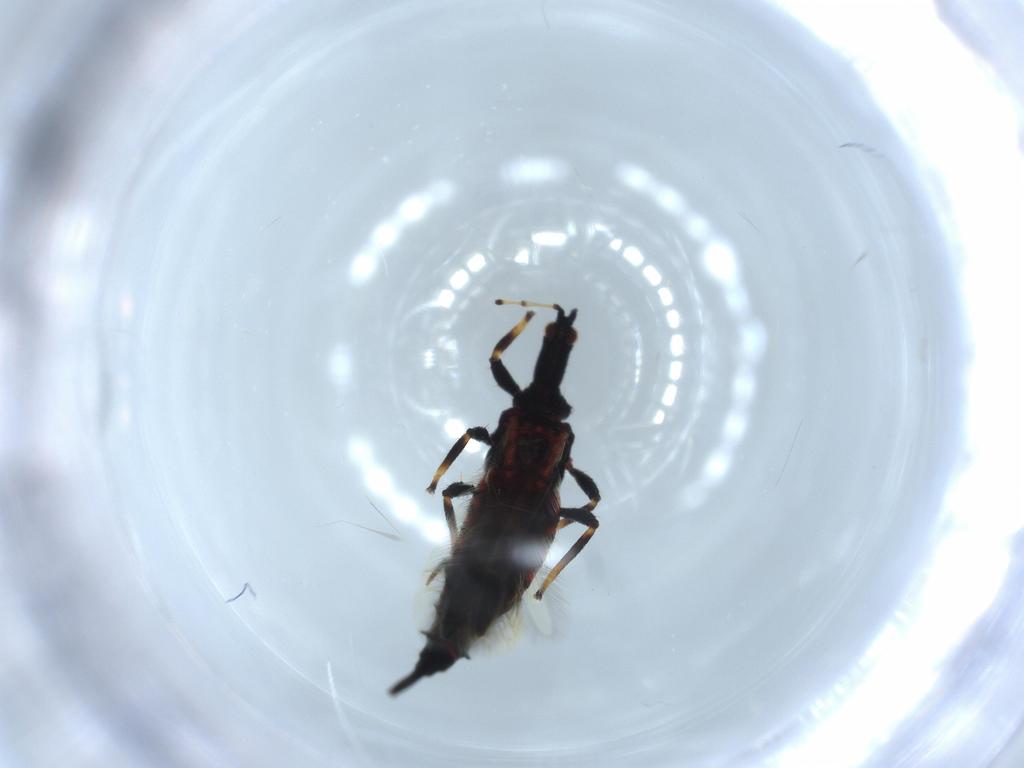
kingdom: Animalia
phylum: Arthropoda
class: Insecta
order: Thysanoptera
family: Phlaeothripidae
